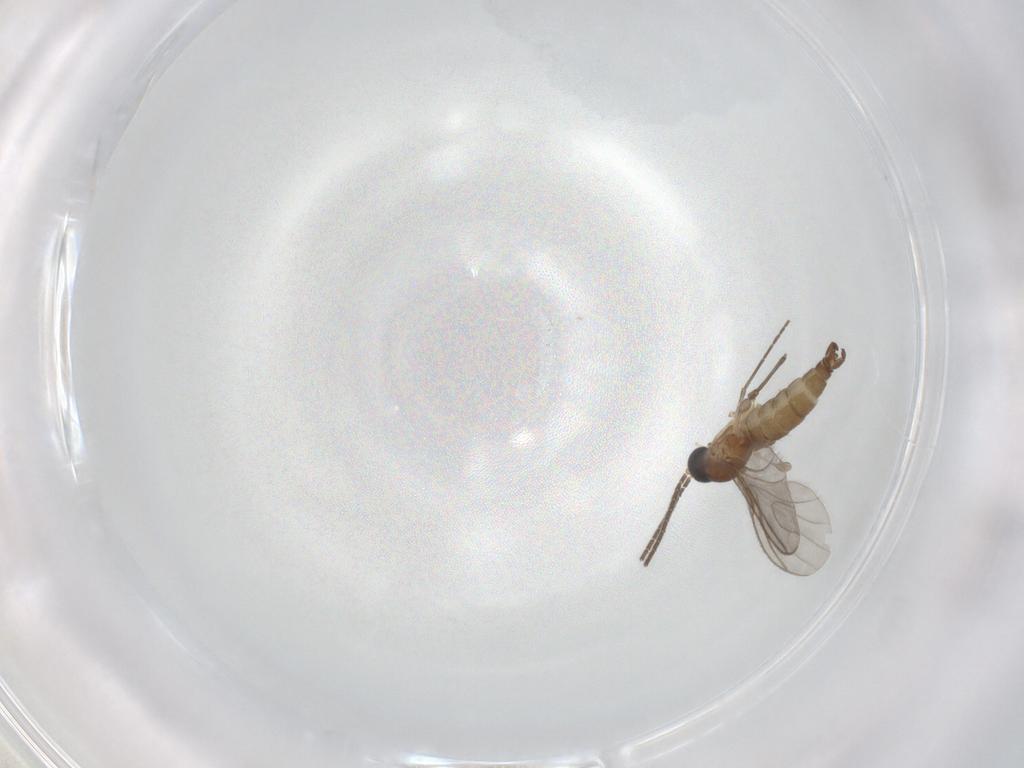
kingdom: Animalia
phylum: Arthropoda
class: Insecta
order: Diptera
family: Sciaridae
